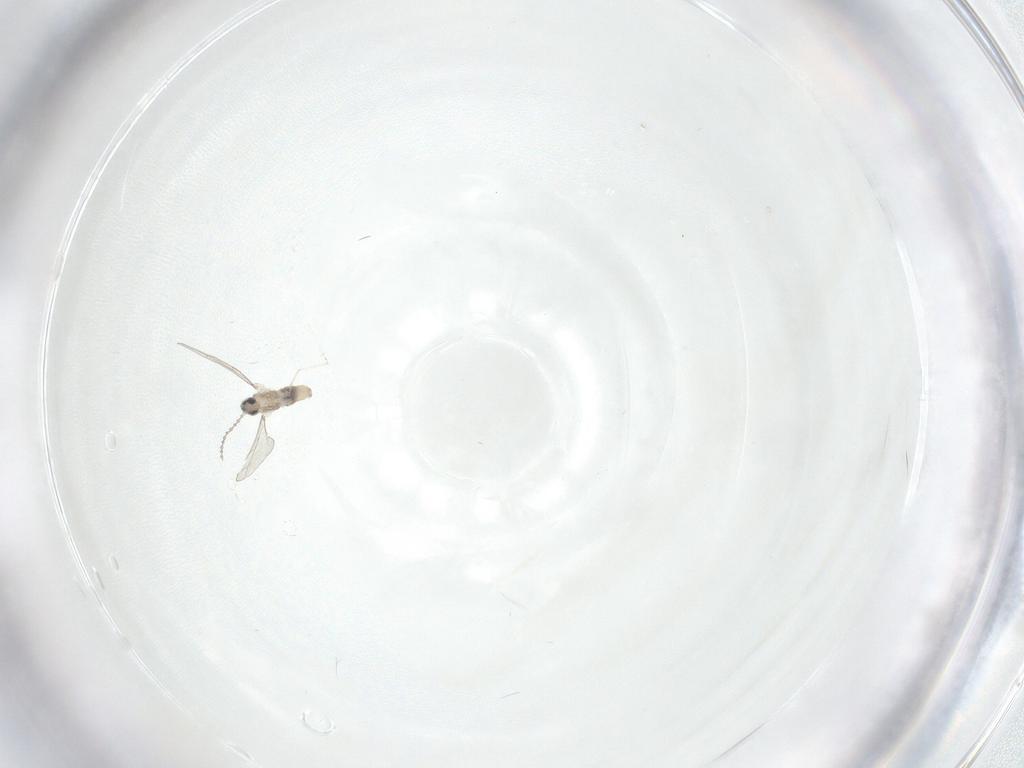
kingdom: Animalia
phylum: Arthropoda
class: Insecta
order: Diptera
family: Cecidomyiidae
